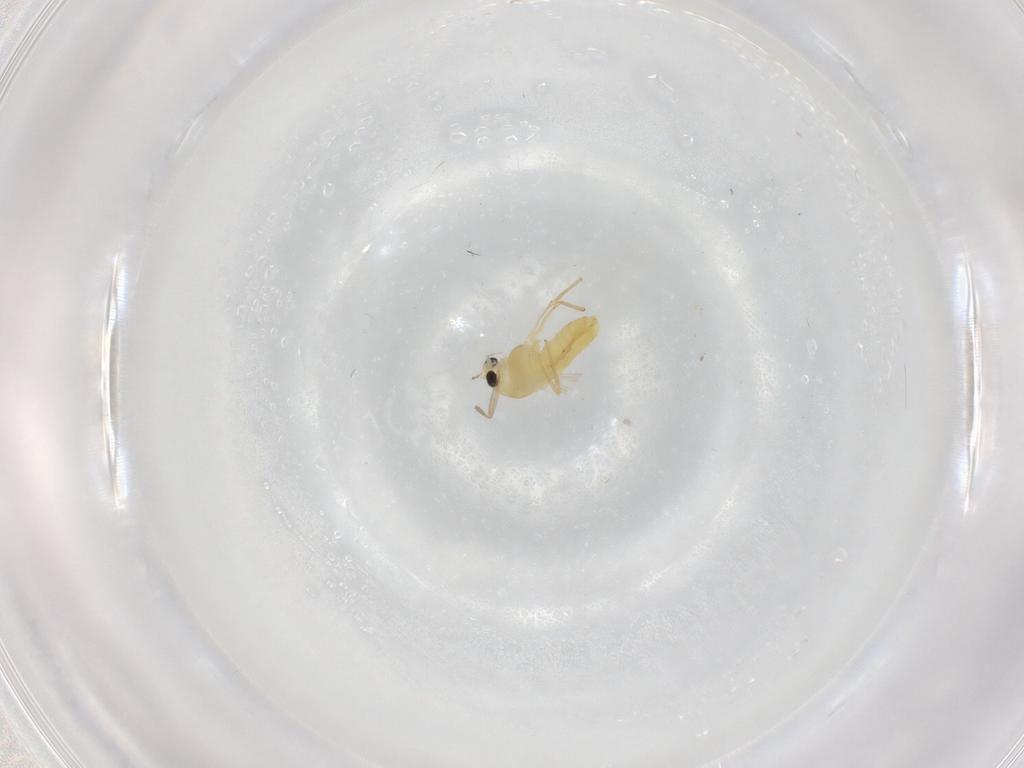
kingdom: Animalia
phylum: Arthropoda
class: Insecta
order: Diptera
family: Chironomidae
